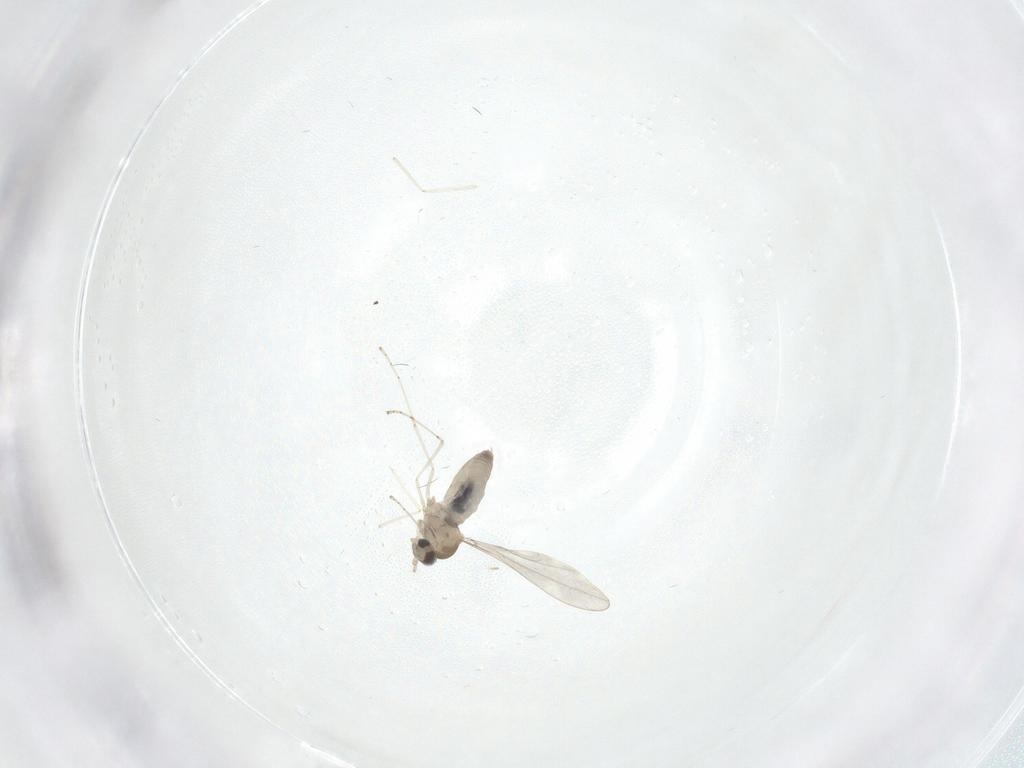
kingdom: Animalia
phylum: Arthropoda
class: Insecta
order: Diptera
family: Cecidomyiidae
